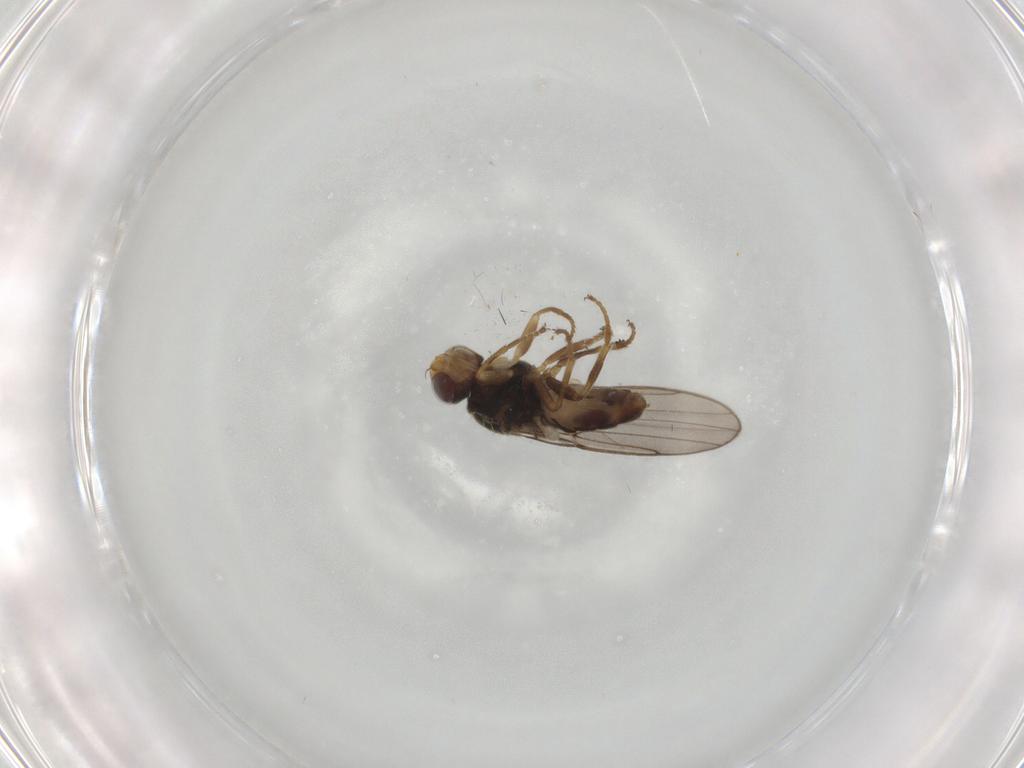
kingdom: Animalia
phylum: Arthropoda
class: Insecta
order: Diptera
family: Chloropidae
